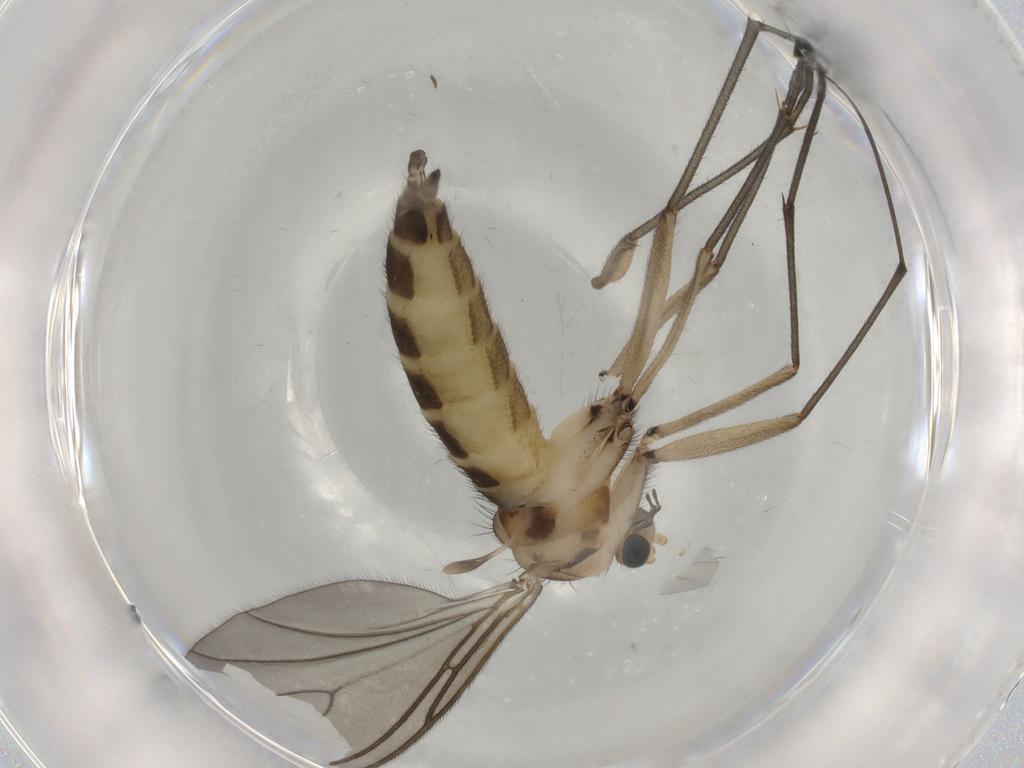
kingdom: Animalia
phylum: Arthropoda
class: Insecta
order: Diptera
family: Sciaridae
